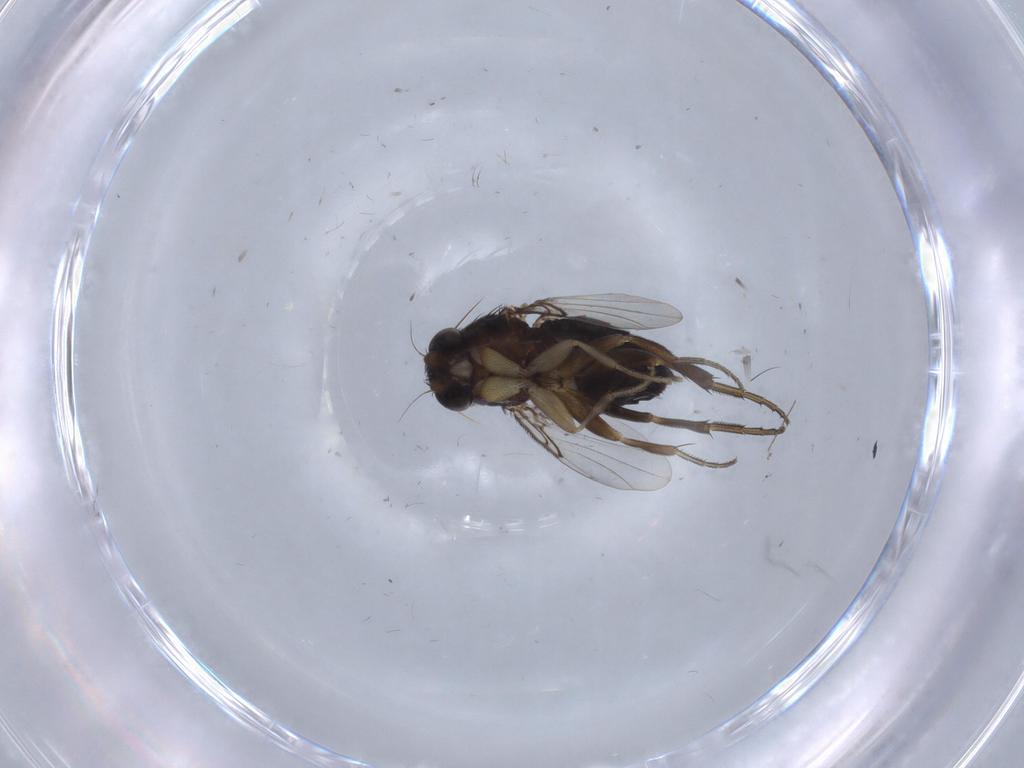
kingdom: Animalia
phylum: Arthropoda
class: Insecta
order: Diptera
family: Phoridae
